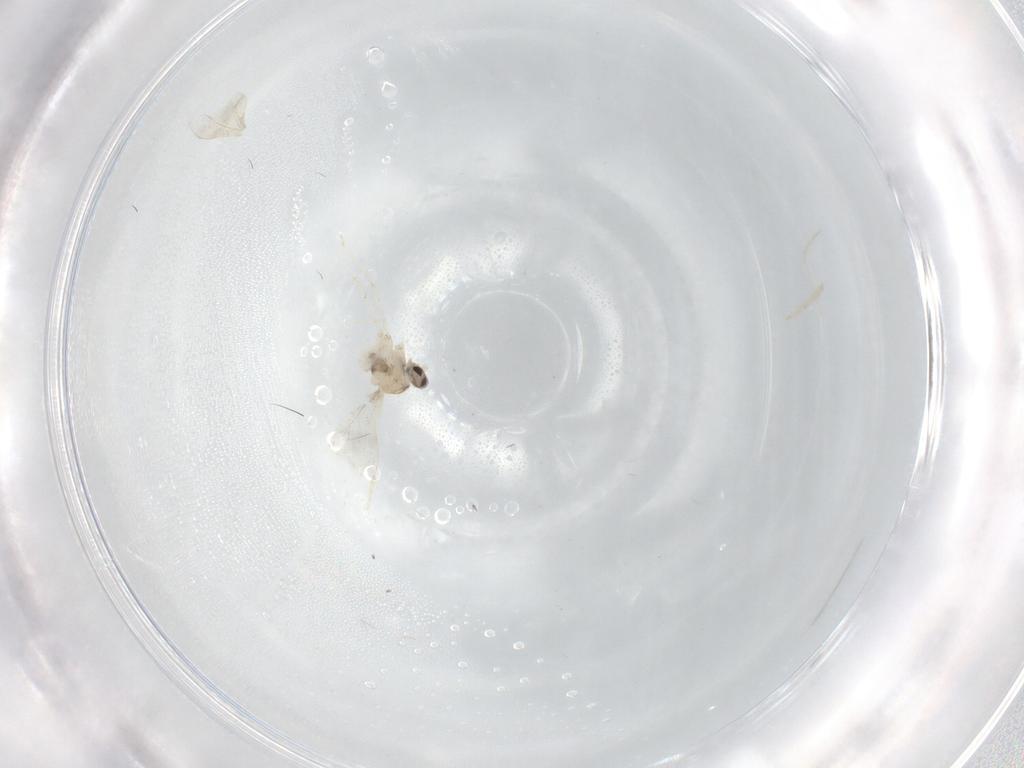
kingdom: Animalia
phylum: Arthropoda
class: Insecta
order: Diptera
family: Cecidomyiidae
